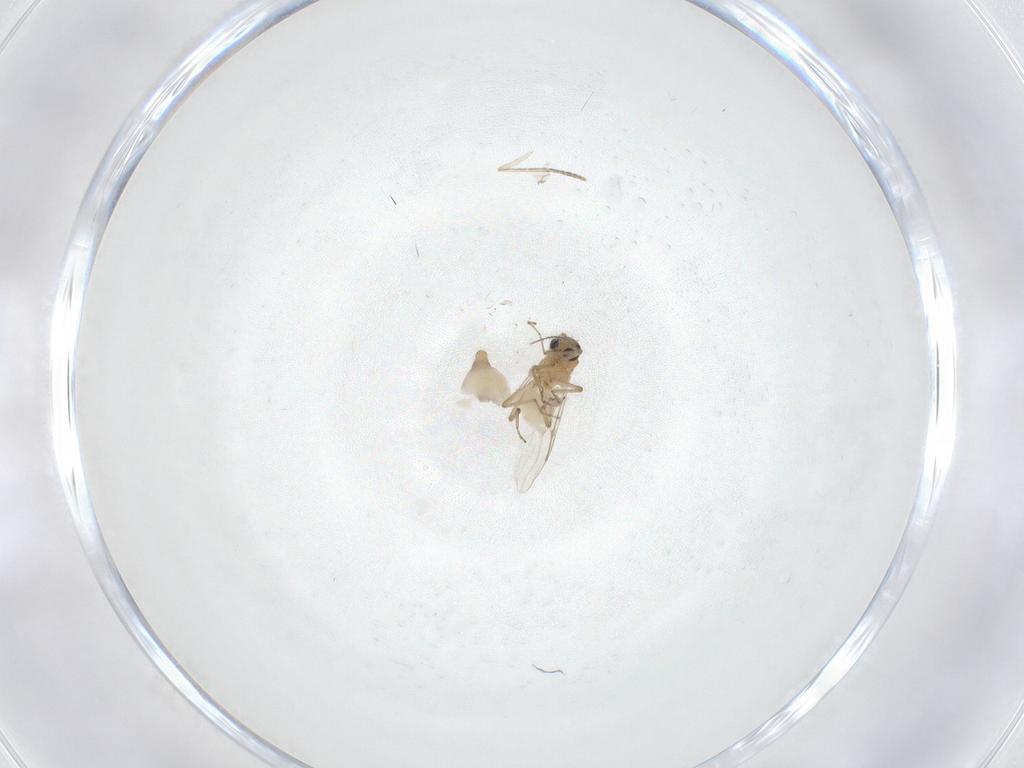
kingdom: Animalia
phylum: Arthropoda
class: Insecta
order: Diptera
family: Ceratopogonidae
